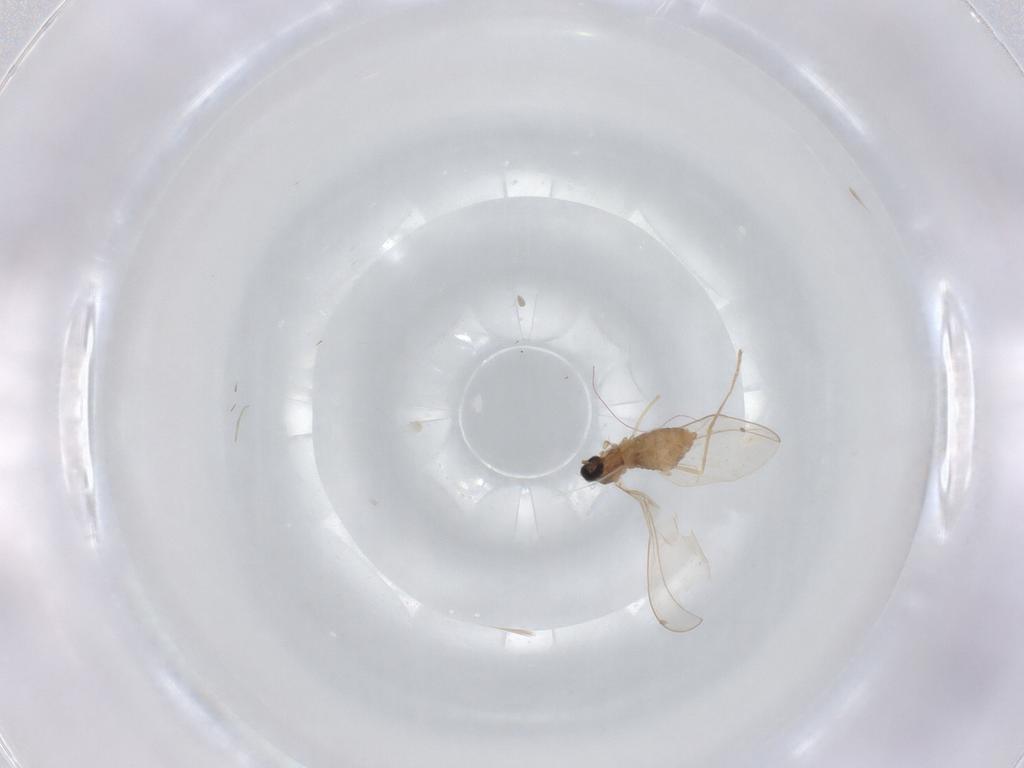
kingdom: Animalia
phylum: Arthropoda
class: Insecta
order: Diptera
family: Cecidomyiidae
